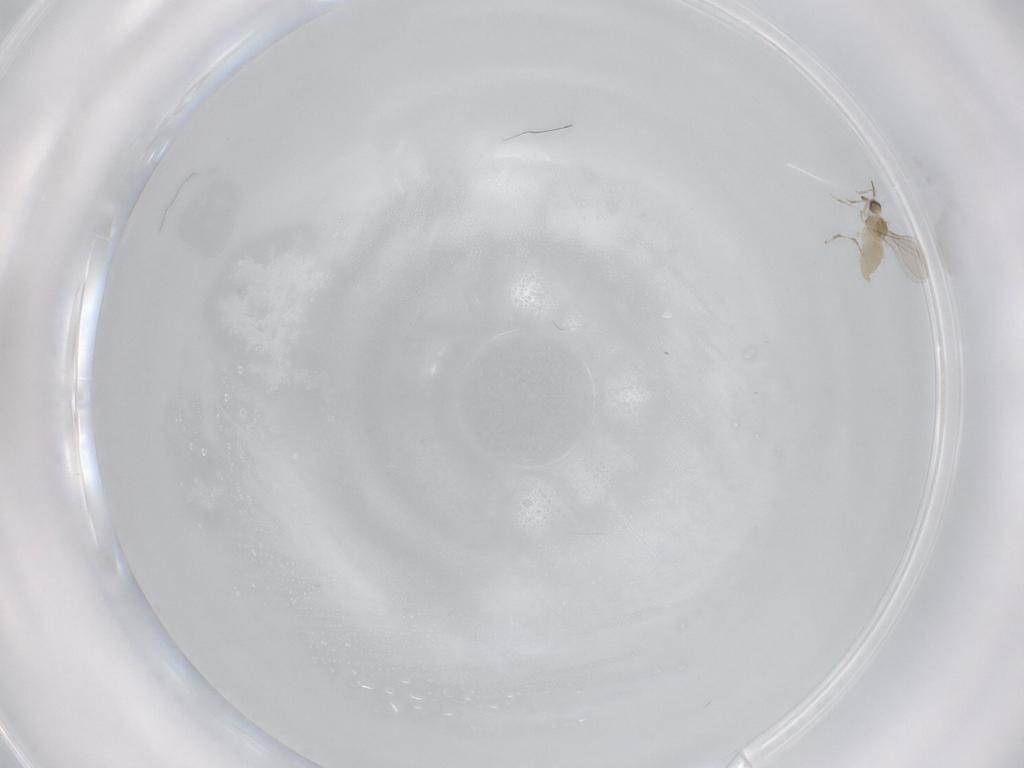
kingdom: Animalia
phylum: Arthropoda
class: Insecta
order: Diptera
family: Cecidomyiidae
